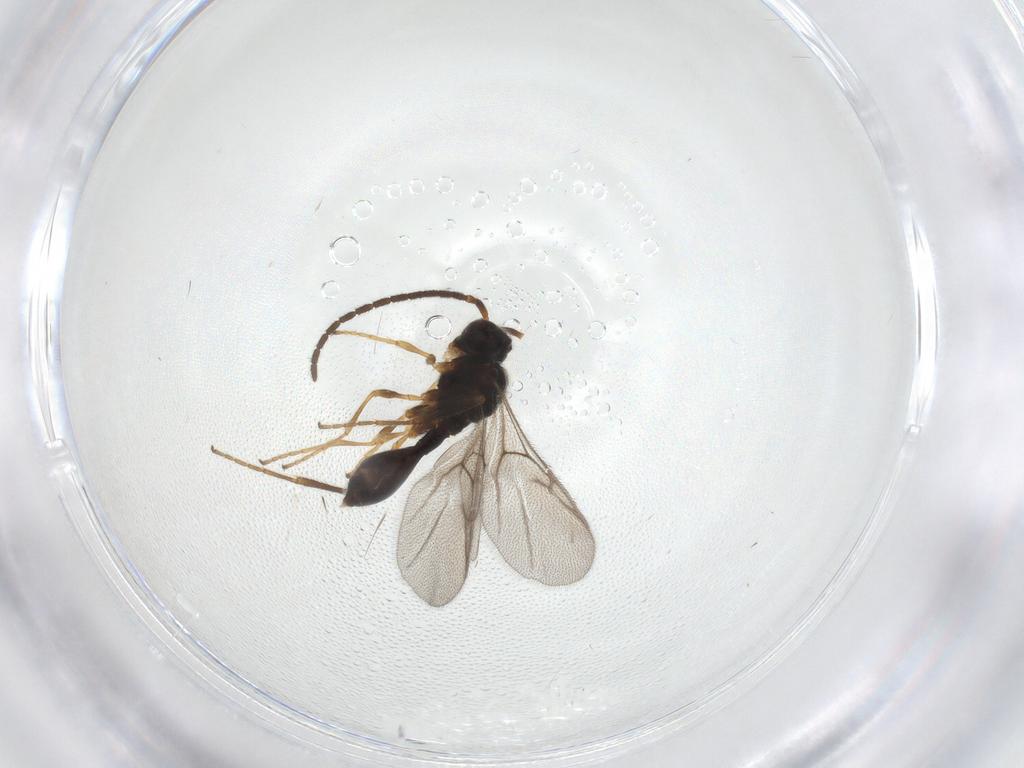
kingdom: Animalia
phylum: Arthropoda
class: Insecta
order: Hymenoptera
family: Diapriidae
